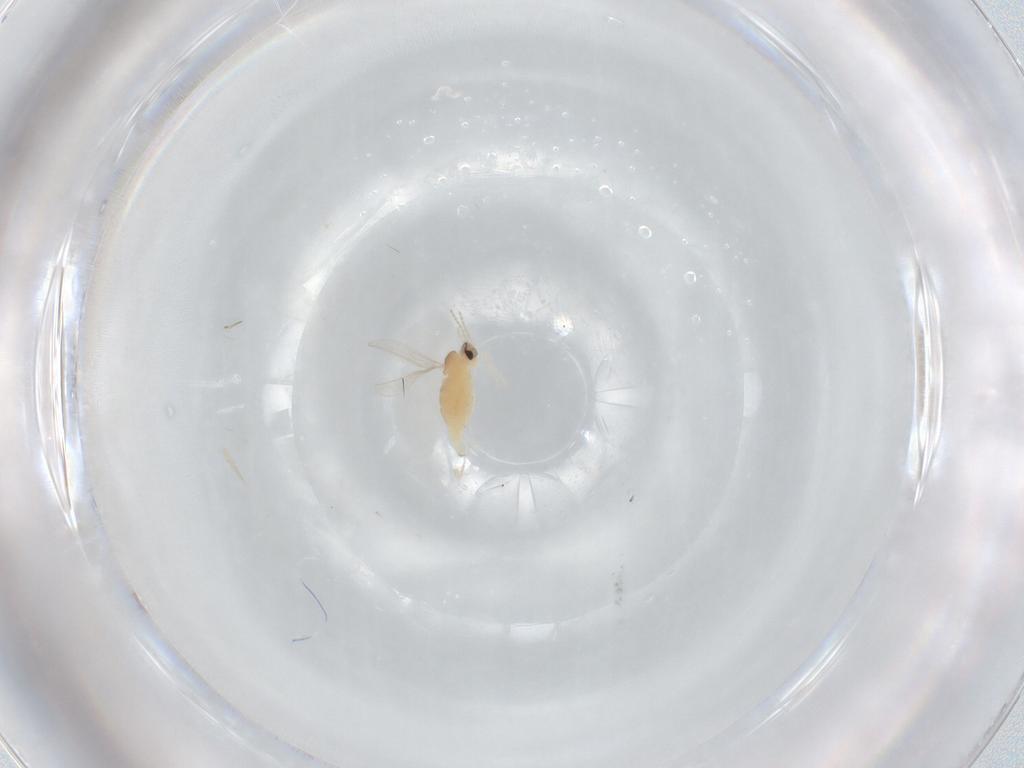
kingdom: Animalia
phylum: Arthropoda
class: Insecta
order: Diptera
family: Cecidomyiidae
